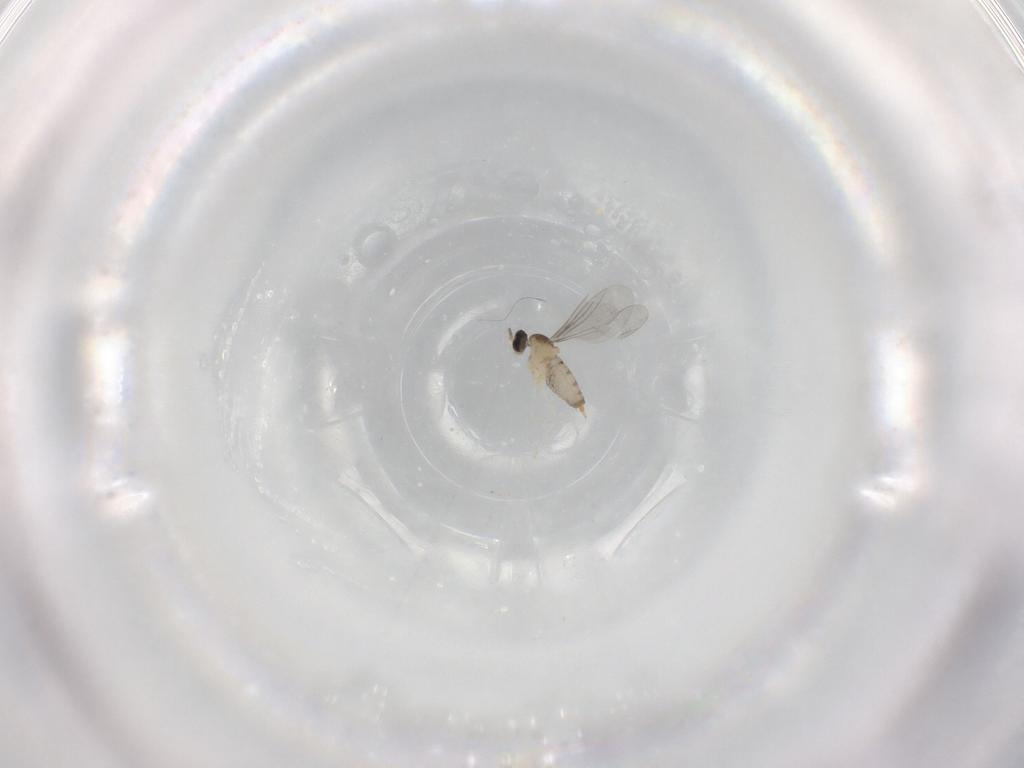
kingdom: Animalia
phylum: Arthropoda
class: Insecta
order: Diptera
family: Cecidomyiidae
